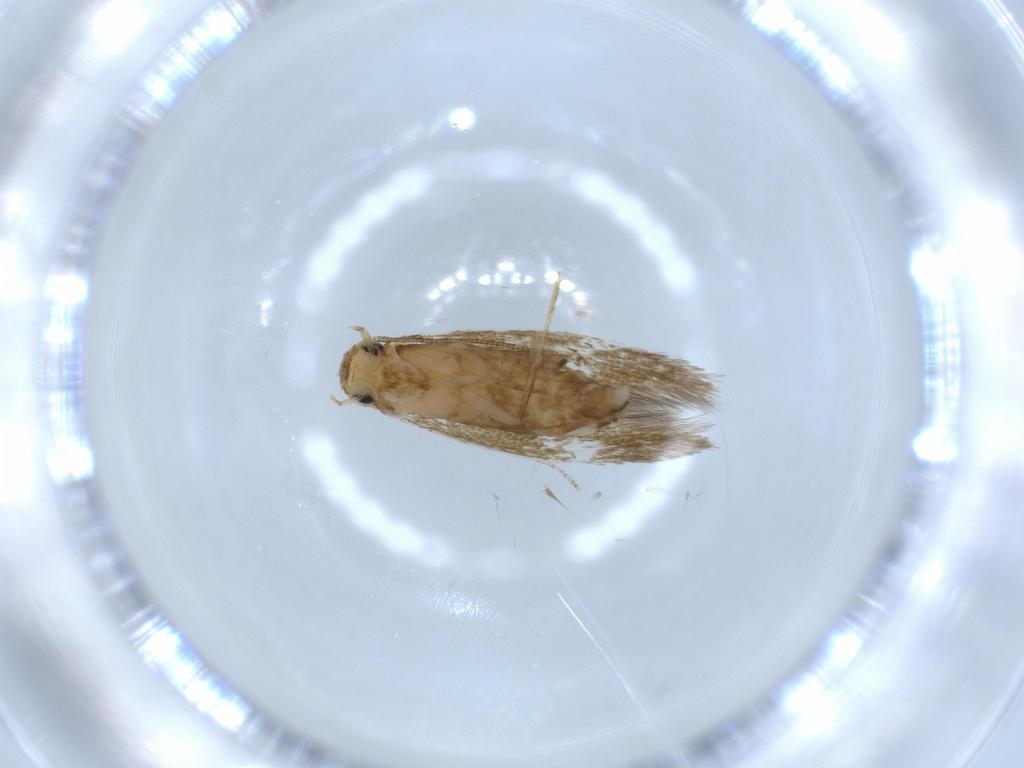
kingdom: Animalia
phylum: Arthropoda
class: Insecta
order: Lepidoptera
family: Tineidae
